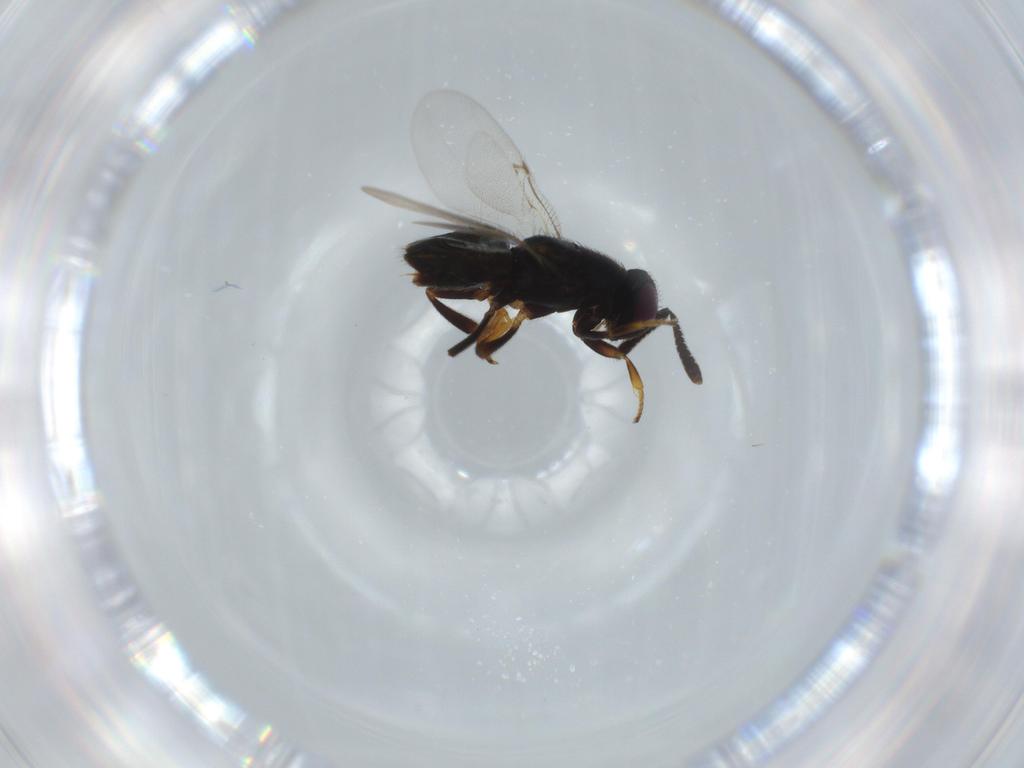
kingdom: Animalia
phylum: Arthropoda
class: Insecta
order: Hymenoptera
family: Encyrtidae
